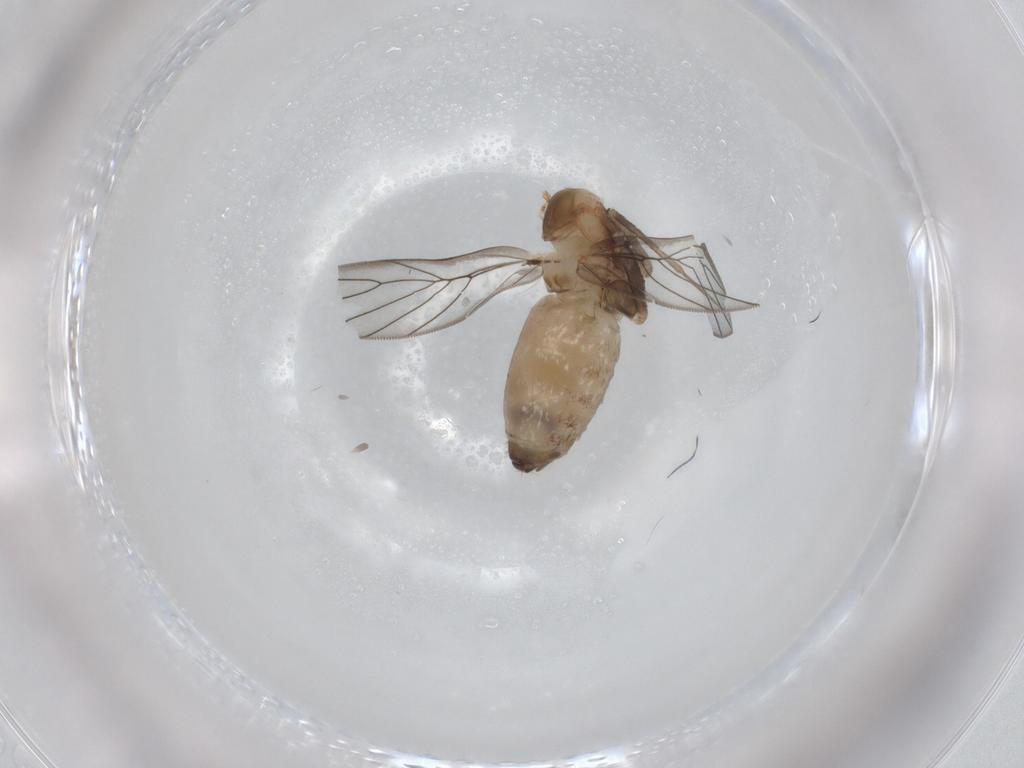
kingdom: Animalia
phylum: Arthropoda
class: Insecta
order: Psocodea
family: Lepidopsocidae
